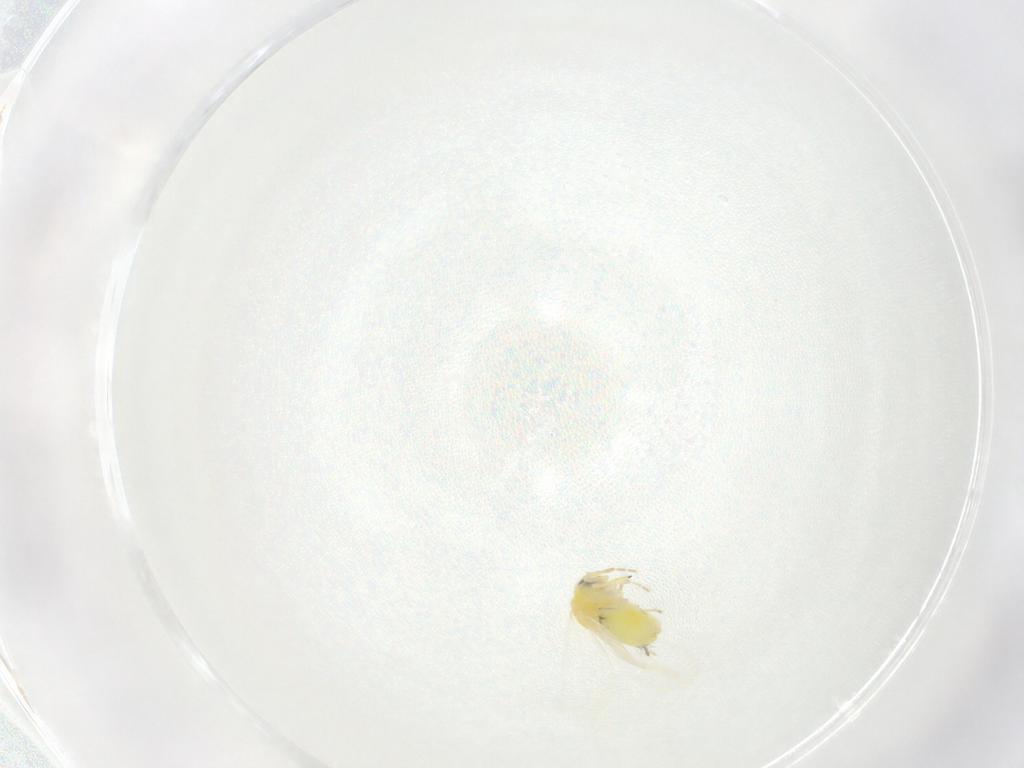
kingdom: Animalia
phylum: Arthropoda
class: Insecta
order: Hemiptera
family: Aleyrodidae
